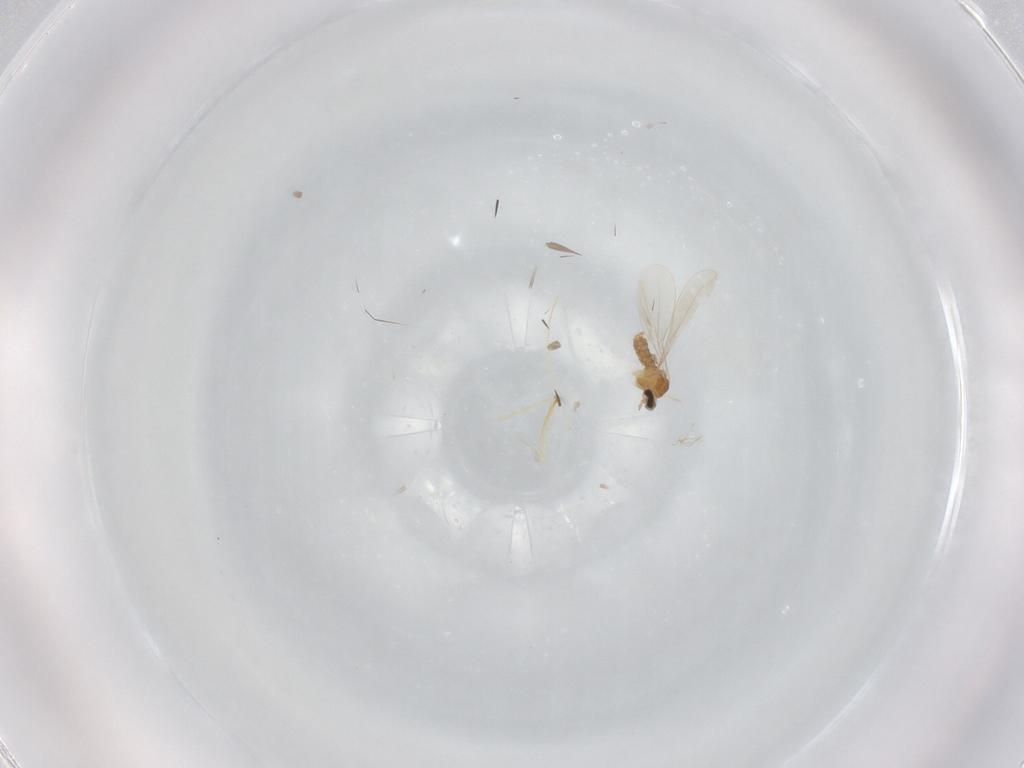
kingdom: Animalia
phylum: Arthropoda
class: Insecta
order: Diptera
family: Cecidomyiidae
